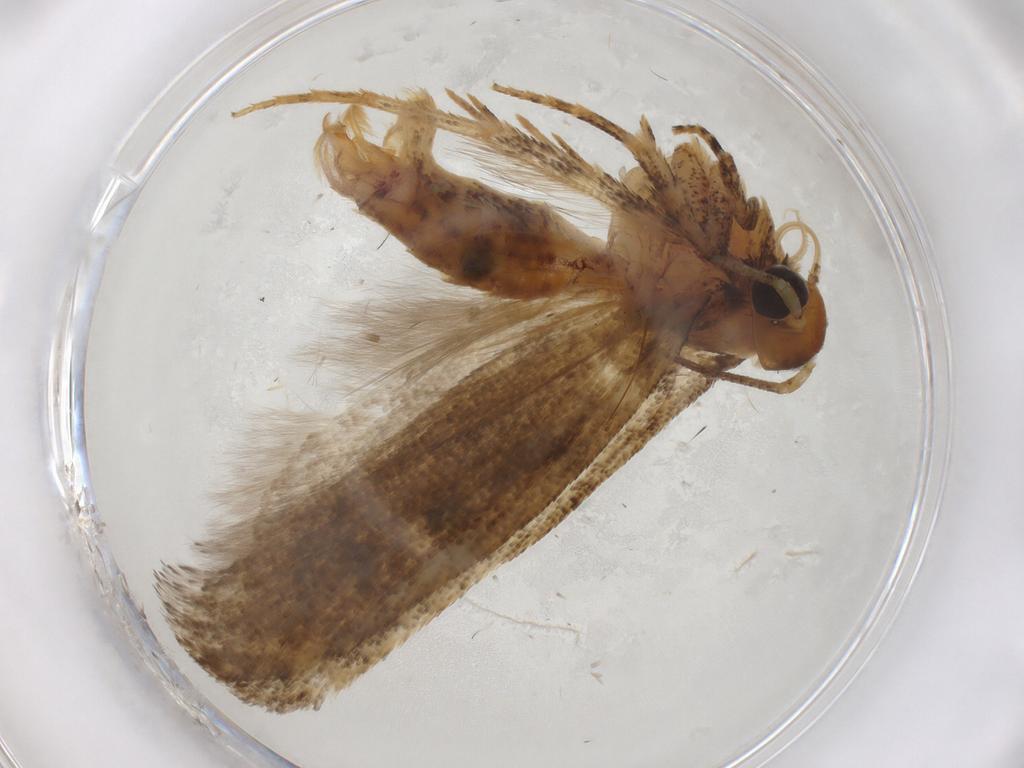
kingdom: Animalia
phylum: Arthropoda
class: Insecta
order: Lepidoptera
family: Gelechiidae
